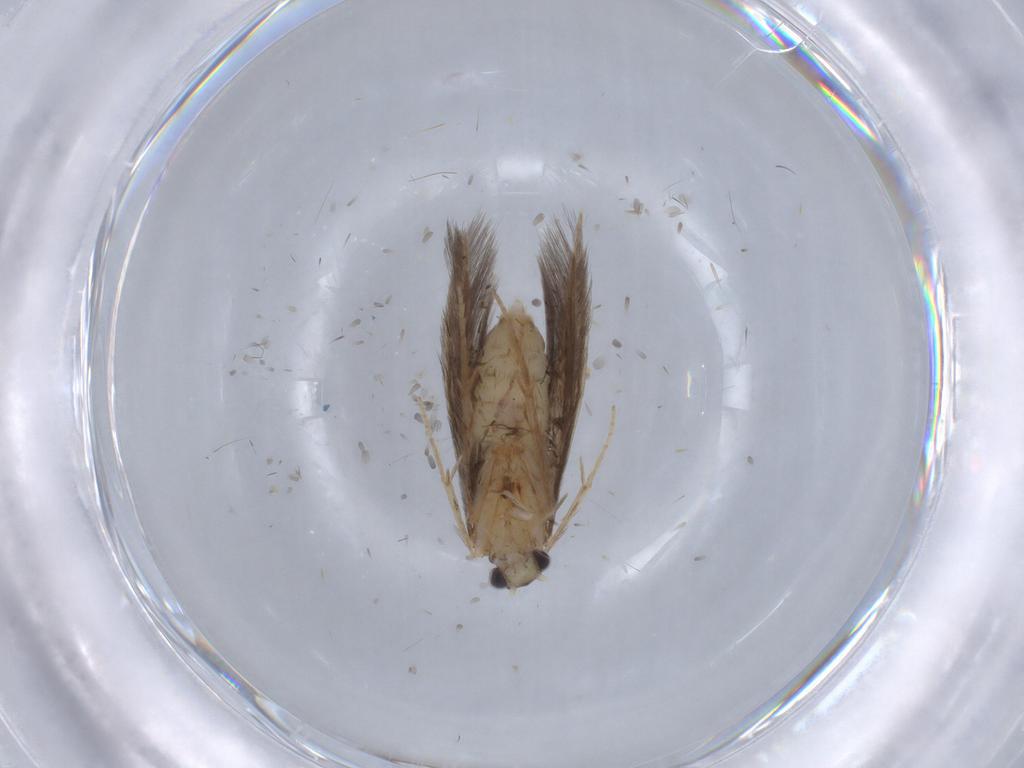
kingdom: Animalia
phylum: Arthropoda
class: Insecta
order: Trichoptera
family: Hydroptilidae
